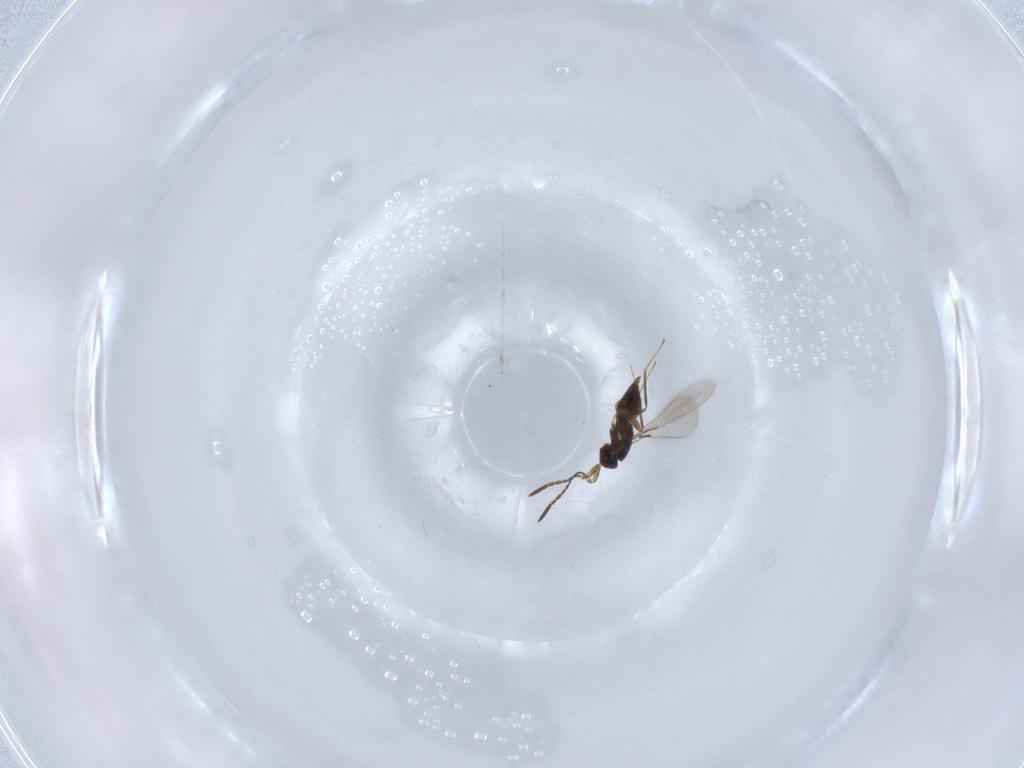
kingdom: Animalia
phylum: Arthropoda
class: Insecta
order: Hymenoptera
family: Mymaridae
